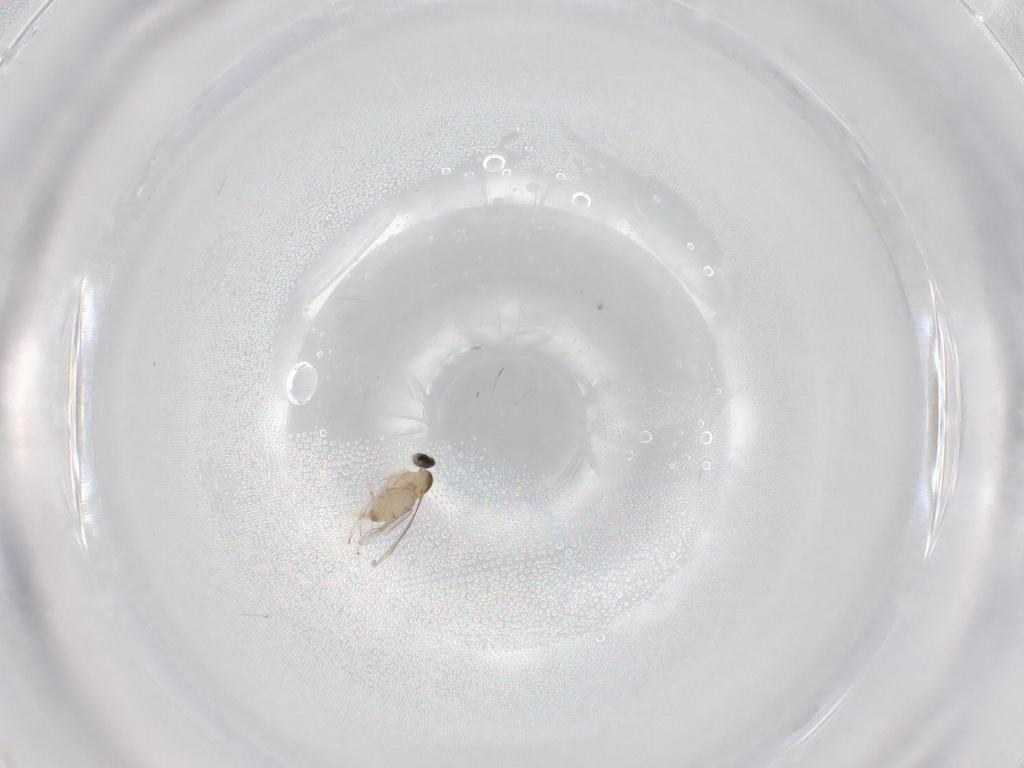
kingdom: Animalia
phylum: Arthropoda
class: Insecta
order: Diptera
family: Cecidomyiidae
